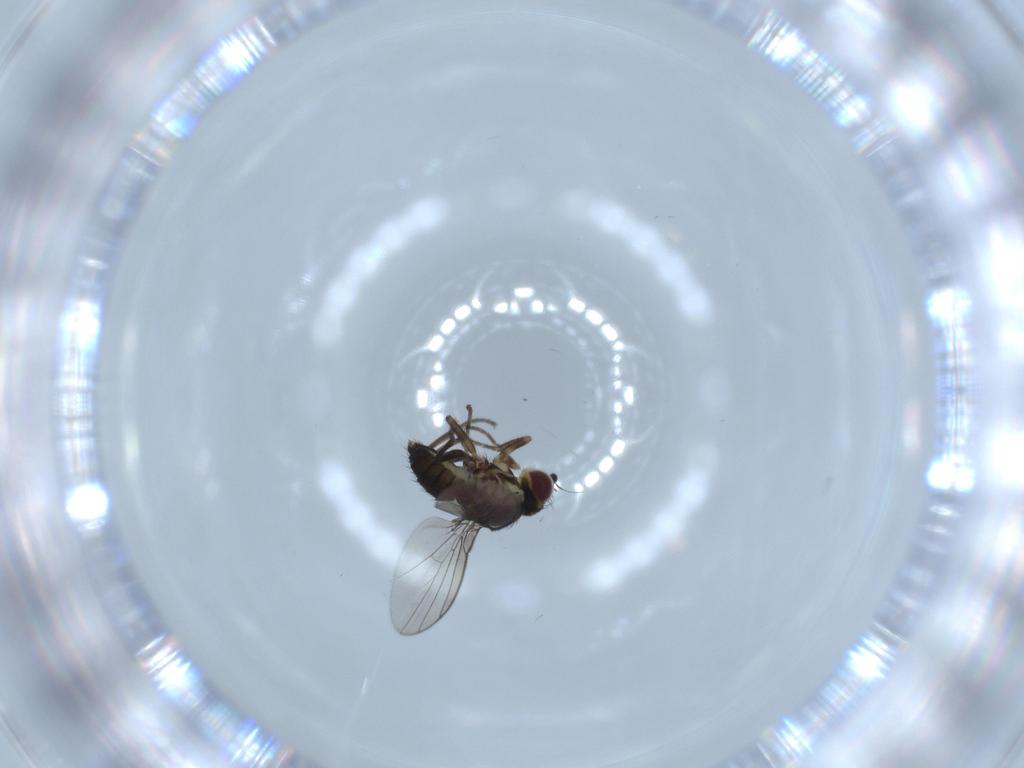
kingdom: Animalia
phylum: Arthropoda
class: Insecta
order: Diptera
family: Agromyzidae
